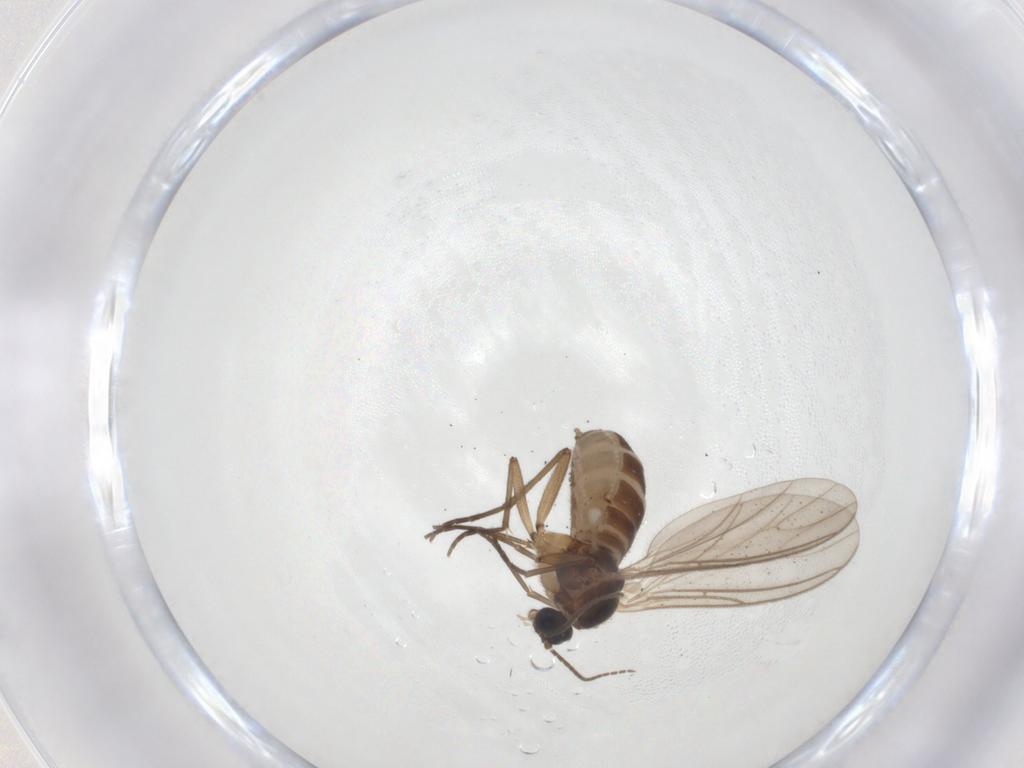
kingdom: Animalia
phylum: Arthropoda
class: Insecta
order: Diptera
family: Sciaridae
